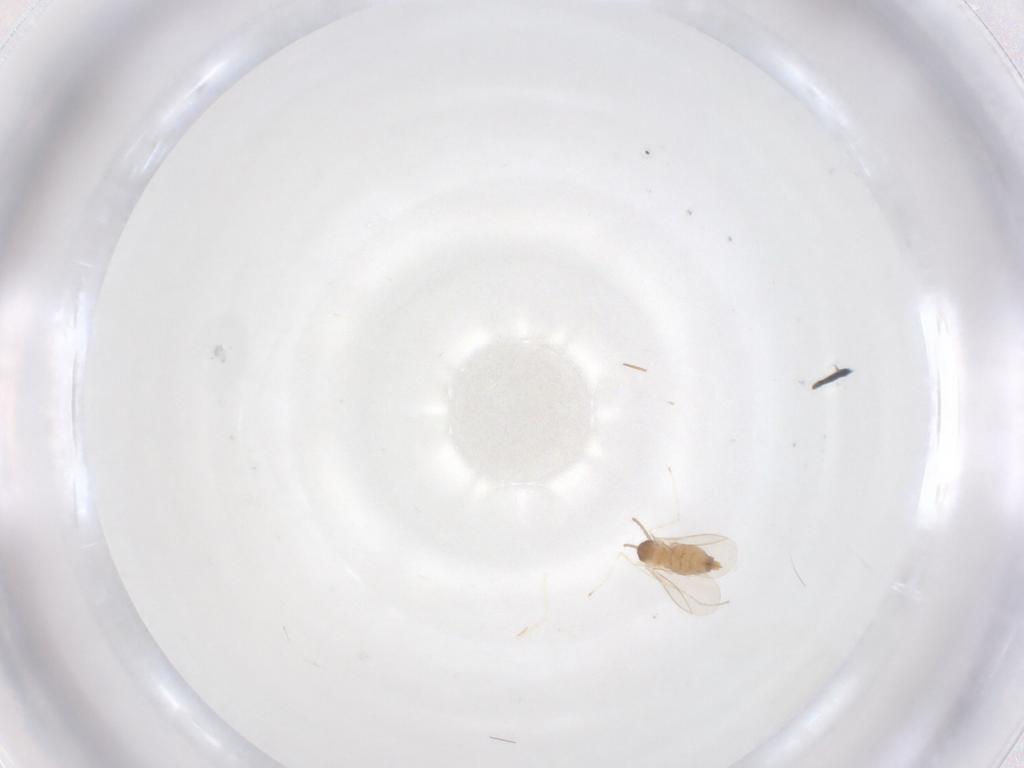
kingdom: Animalia
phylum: Arthropoda
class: Insecta
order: Diptera
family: Cecidomyiidae
